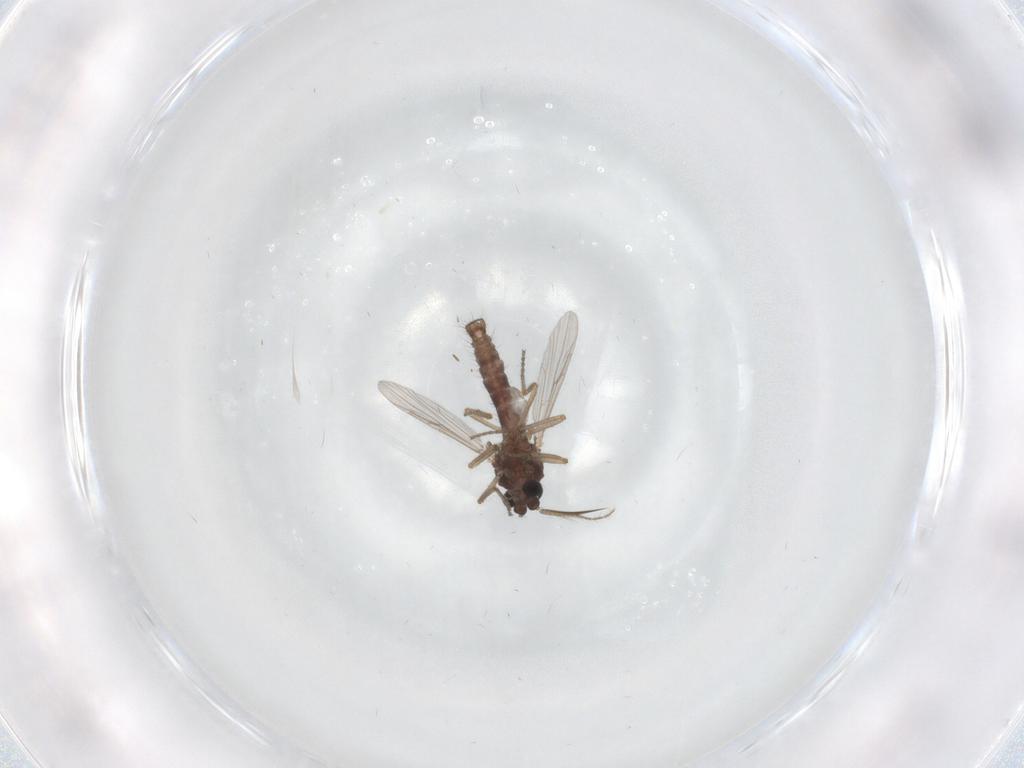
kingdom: Animalia
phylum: Arthropoda
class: Insecta
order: Diptera
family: Ceratopogonidae
